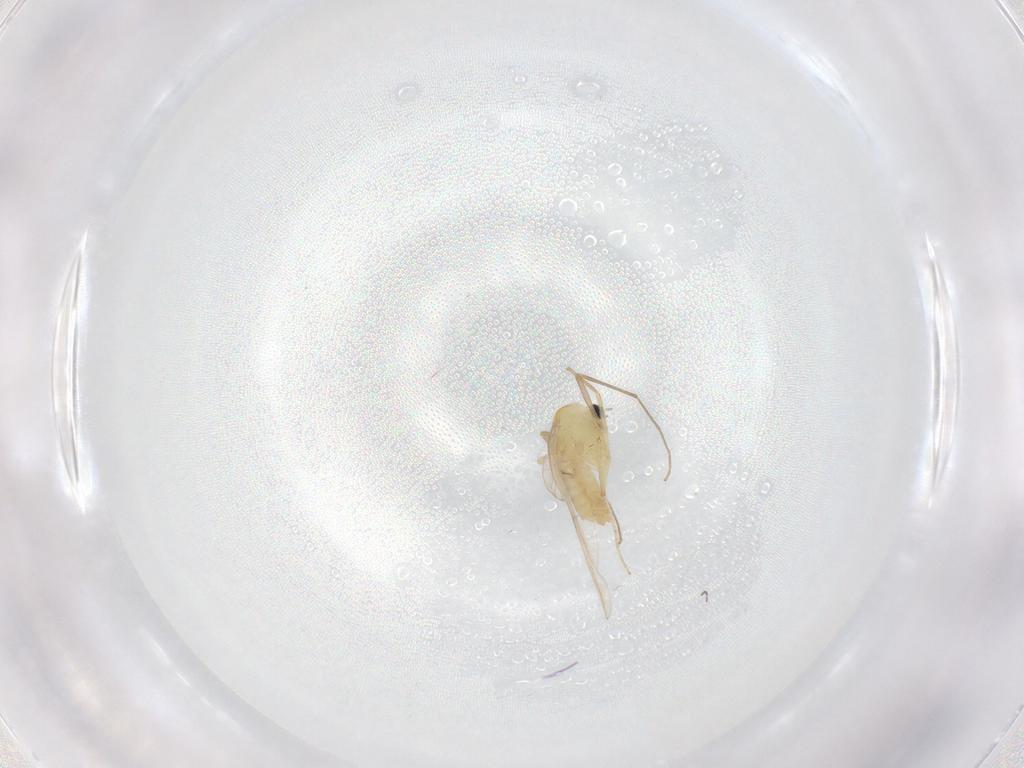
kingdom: Animalia
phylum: Arthropoda
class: Insecta
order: Diptera
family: Chironomidae
